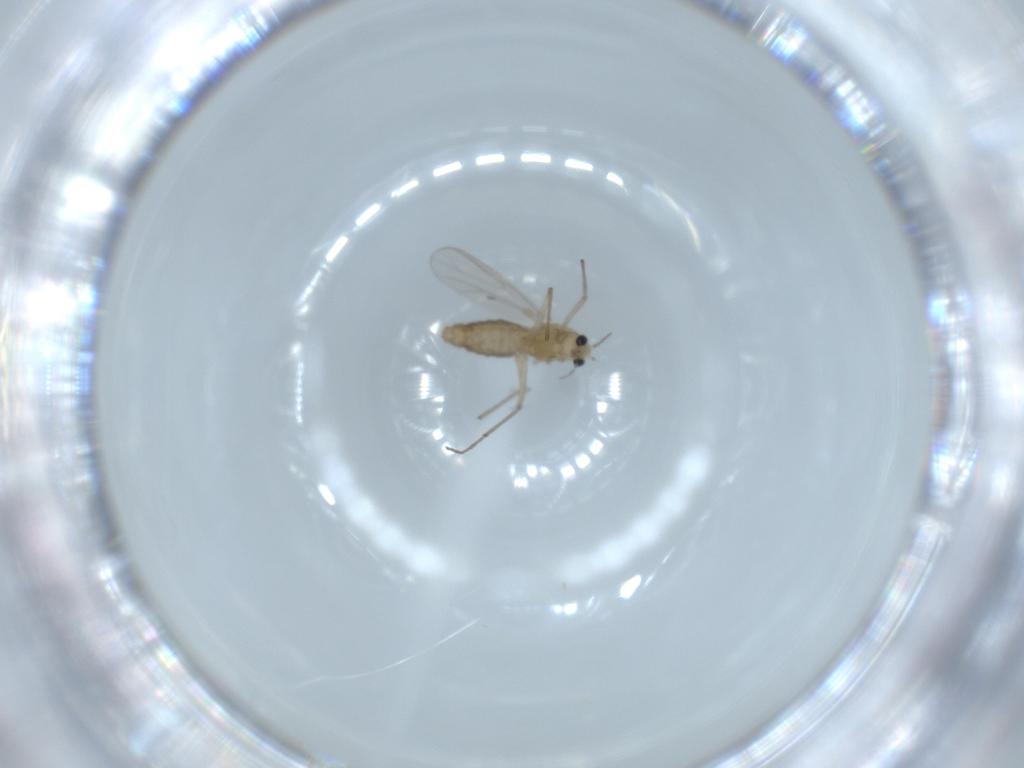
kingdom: Animalia
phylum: Arthropoda
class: Insecta
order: Diptera
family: Chironomidae
